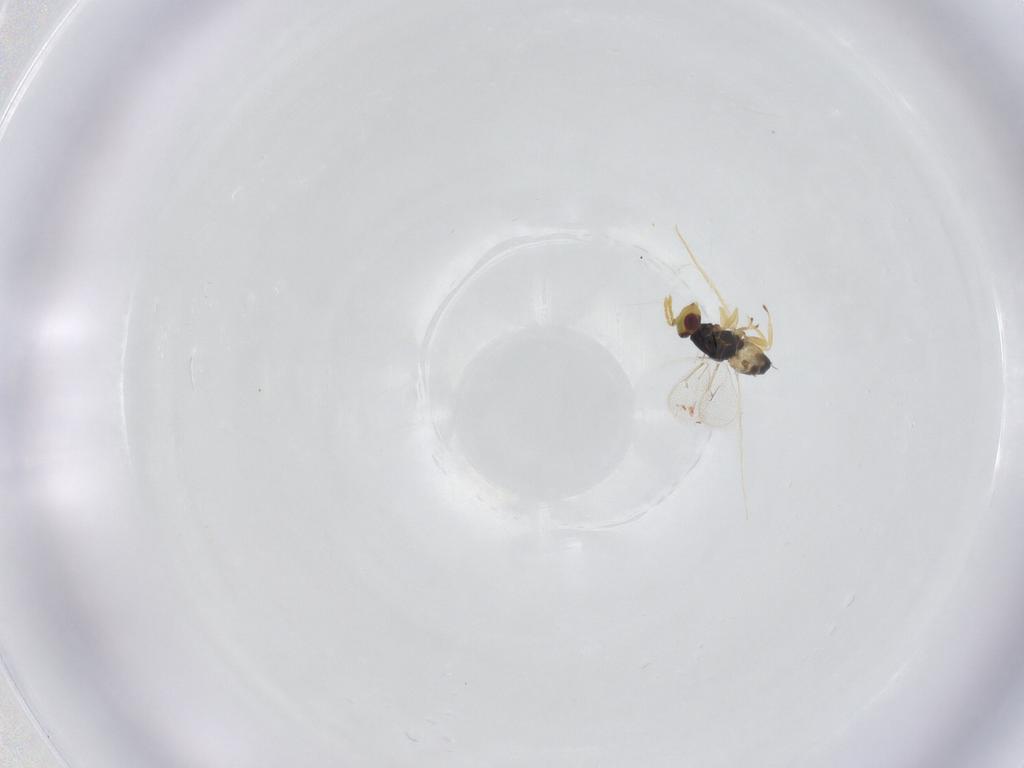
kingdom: Animalia
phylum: Arthropoda
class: Insecta
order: Hymenoptera
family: Eulophidae
